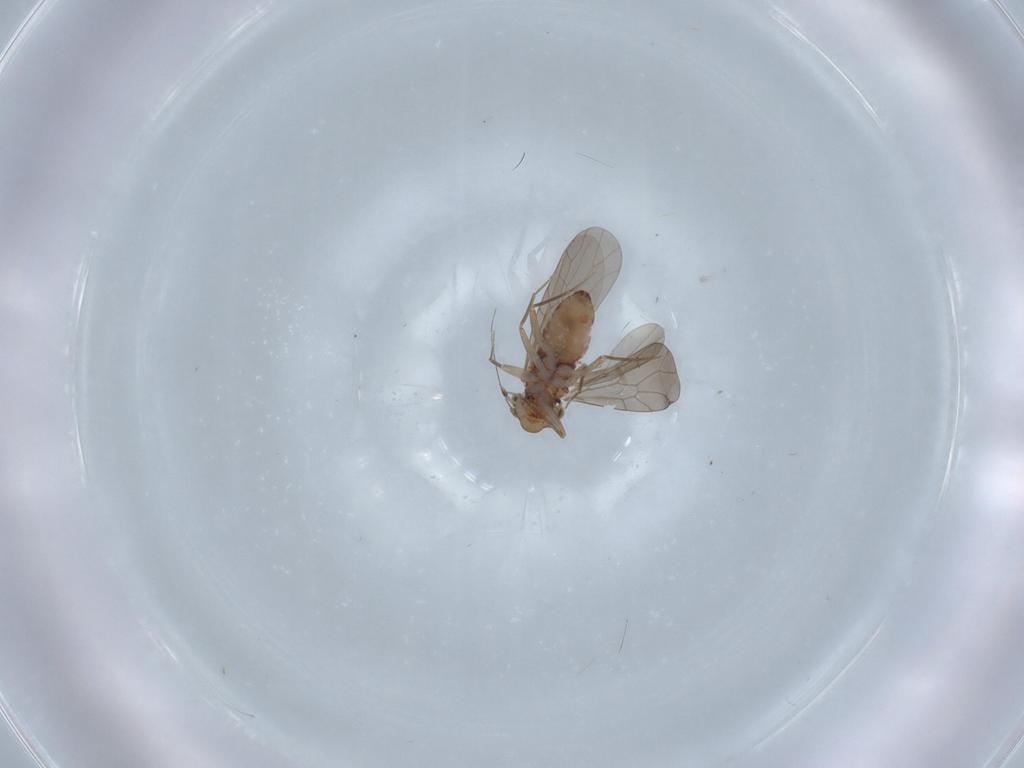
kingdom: Animalia
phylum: Arthropoda
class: Insecta
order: Psocodea
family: Lepidopsocidae
